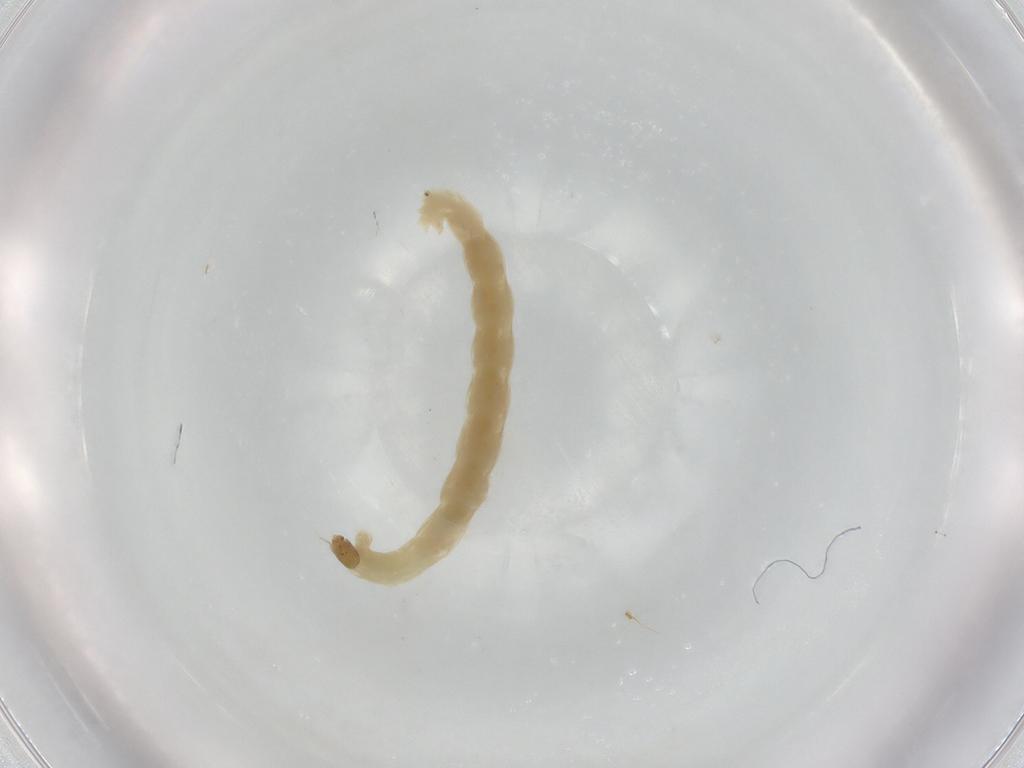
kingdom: Animalia
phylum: Arthropoda
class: Insecta
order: Diptera
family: Chironomidae
